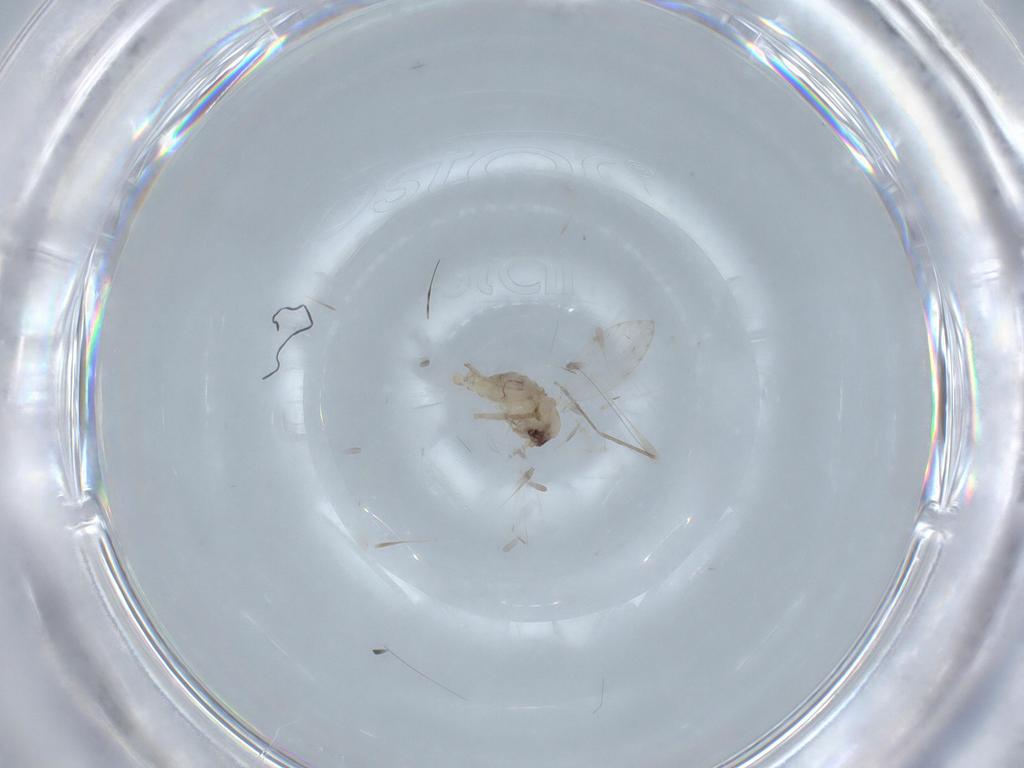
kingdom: Animalia
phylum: Arthropoda
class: Insecta
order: Diptera
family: Psychodidae
